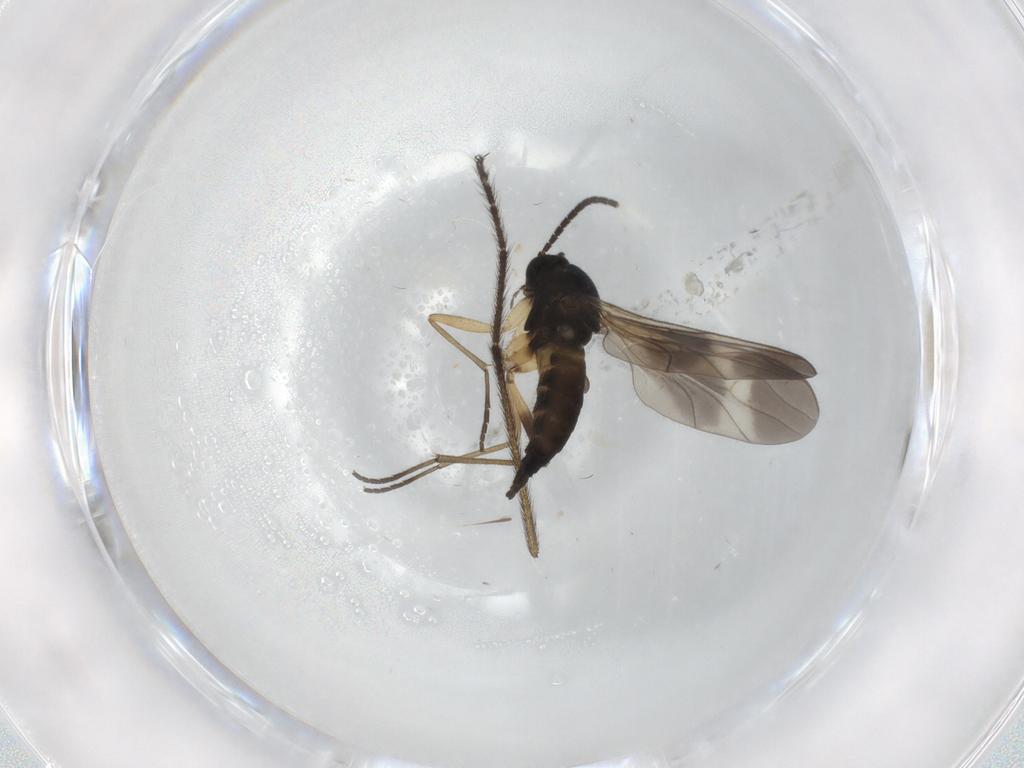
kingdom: Animalia
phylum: Arthropoda
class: Insecta
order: Diptera
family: Sciaridae
